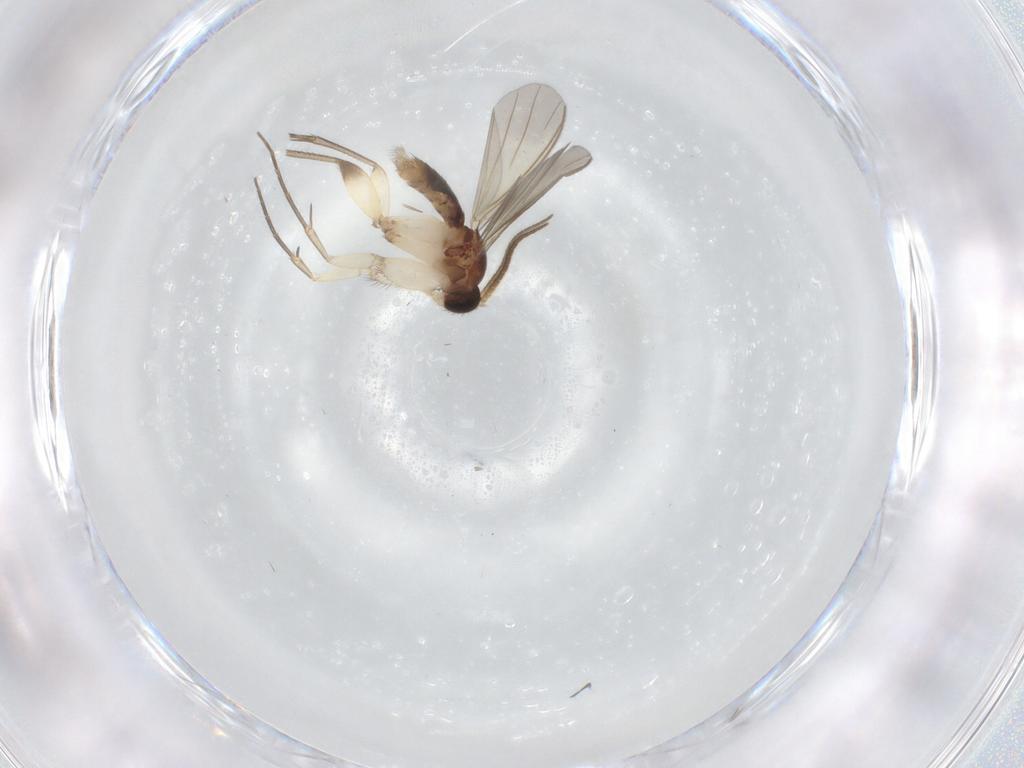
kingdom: Animalia
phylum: Arthropoda
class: Insecta
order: Diptera
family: Mycetophilidae
